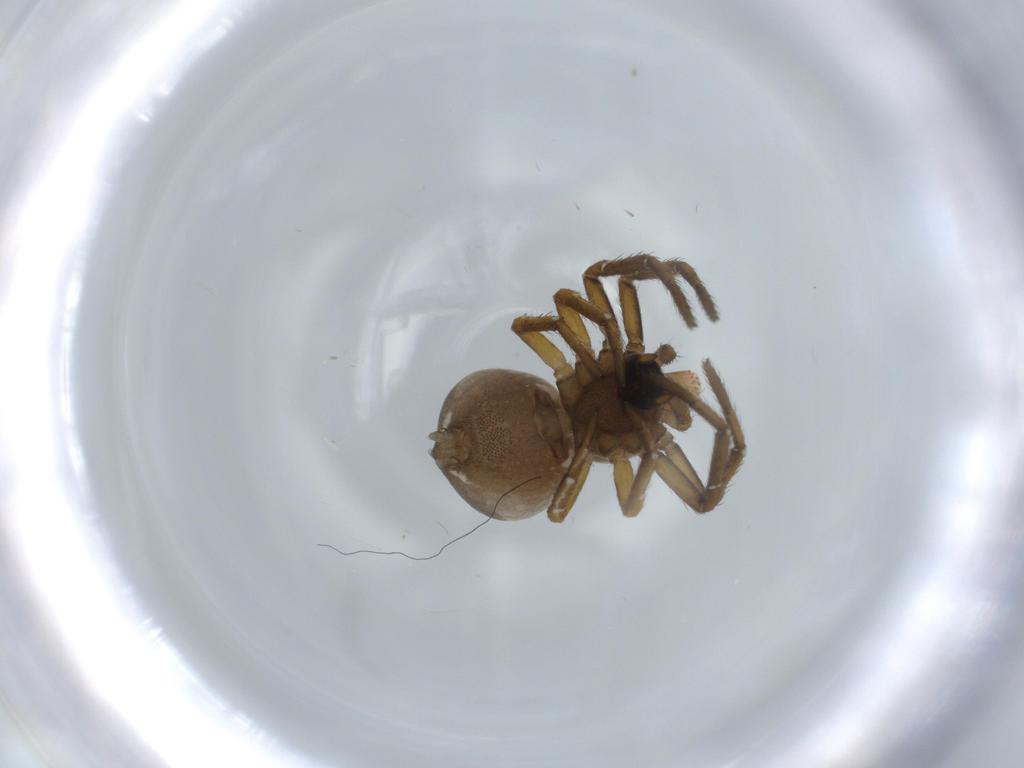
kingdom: Animalia
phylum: Arthropoda
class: Arachnida
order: Araneae
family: Thomisidae
